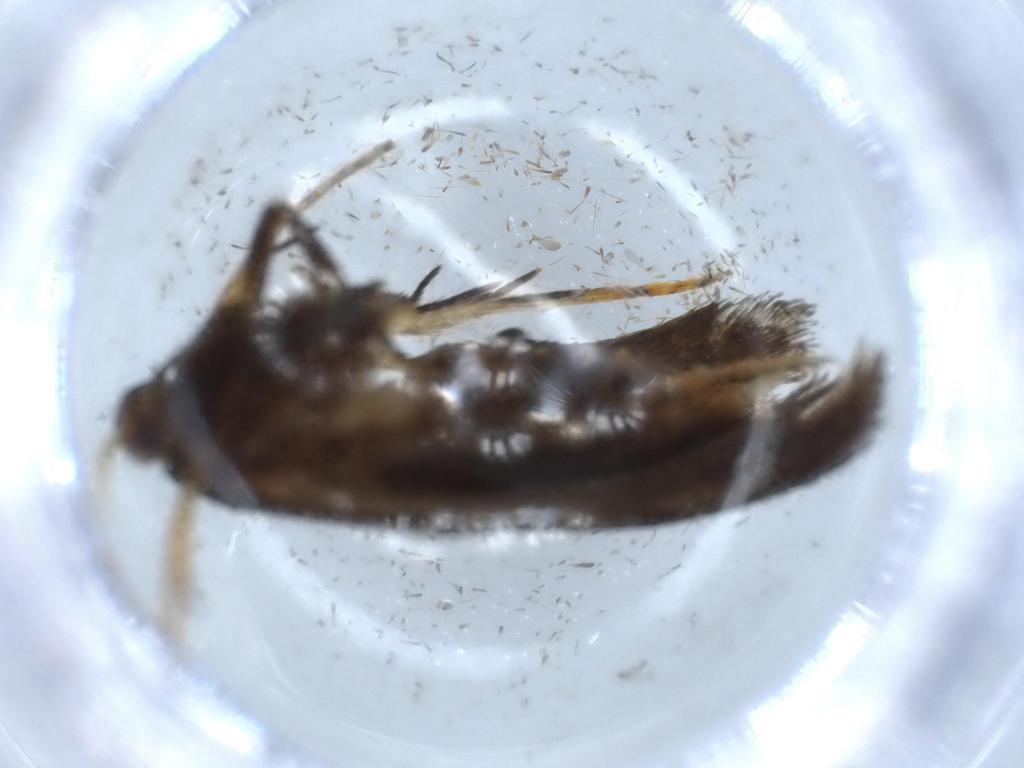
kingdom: Animalia
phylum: Arthropoda
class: Insecta
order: Lepidoptera
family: Lecithoceridae
